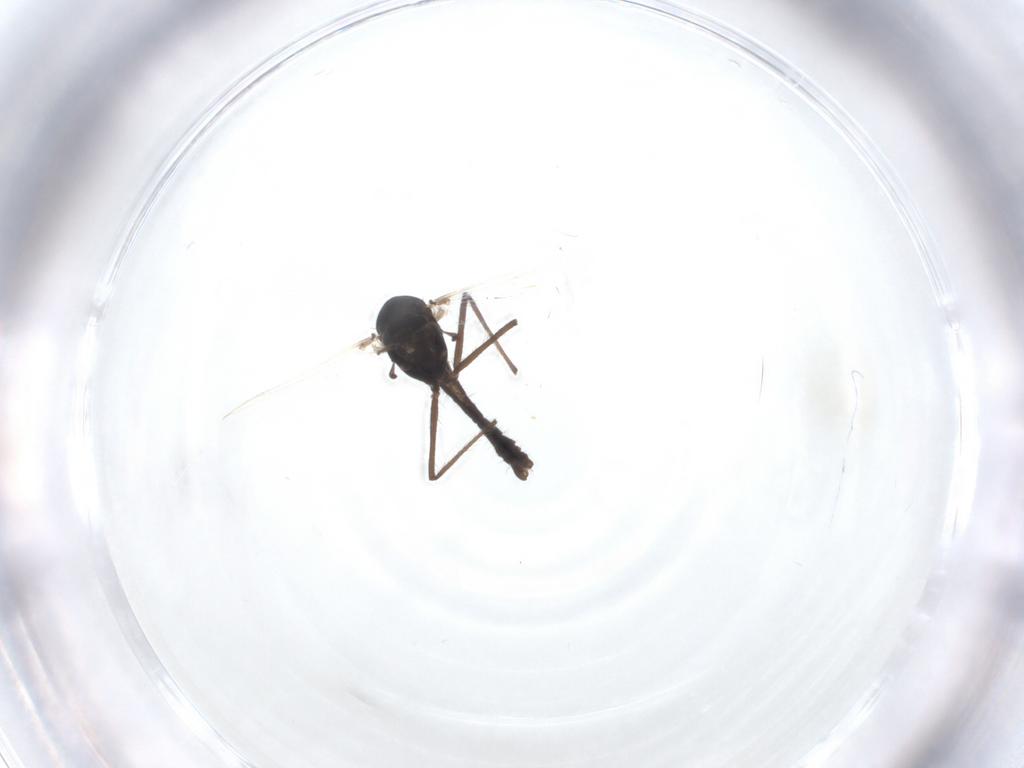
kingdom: Animalia
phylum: Arthropoda
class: Insecta
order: Diptera
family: Chironomidae
